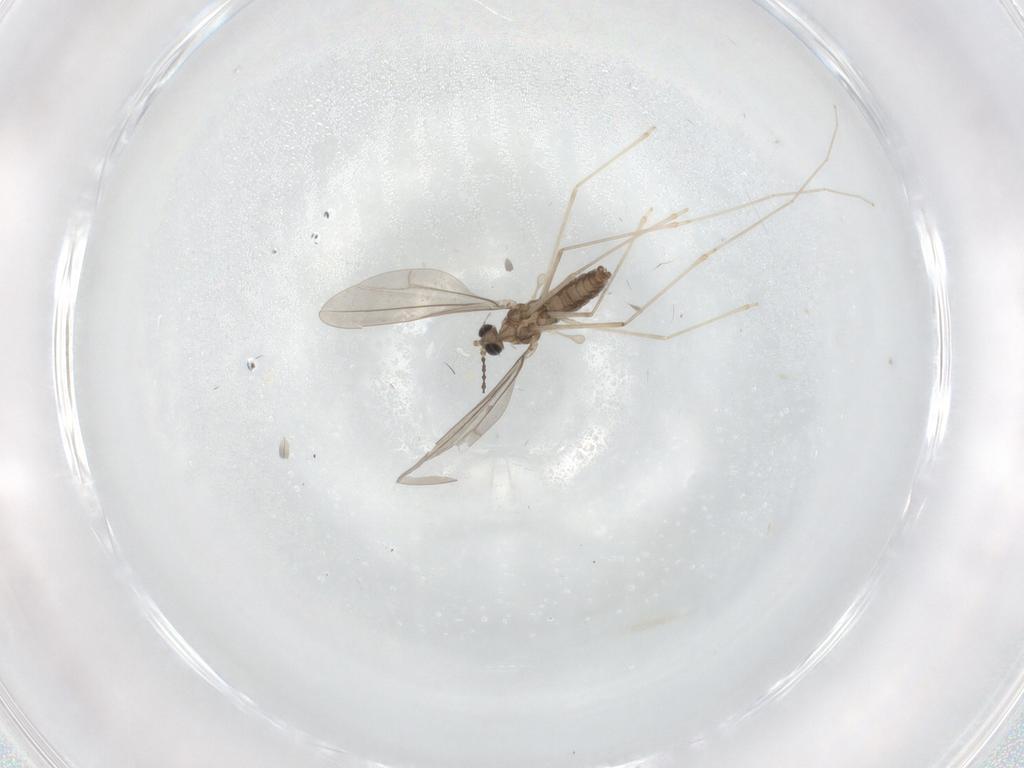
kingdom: Animalia
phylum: Arthropoda
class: Insecta
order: Diptera
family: Cecidomyiidae
